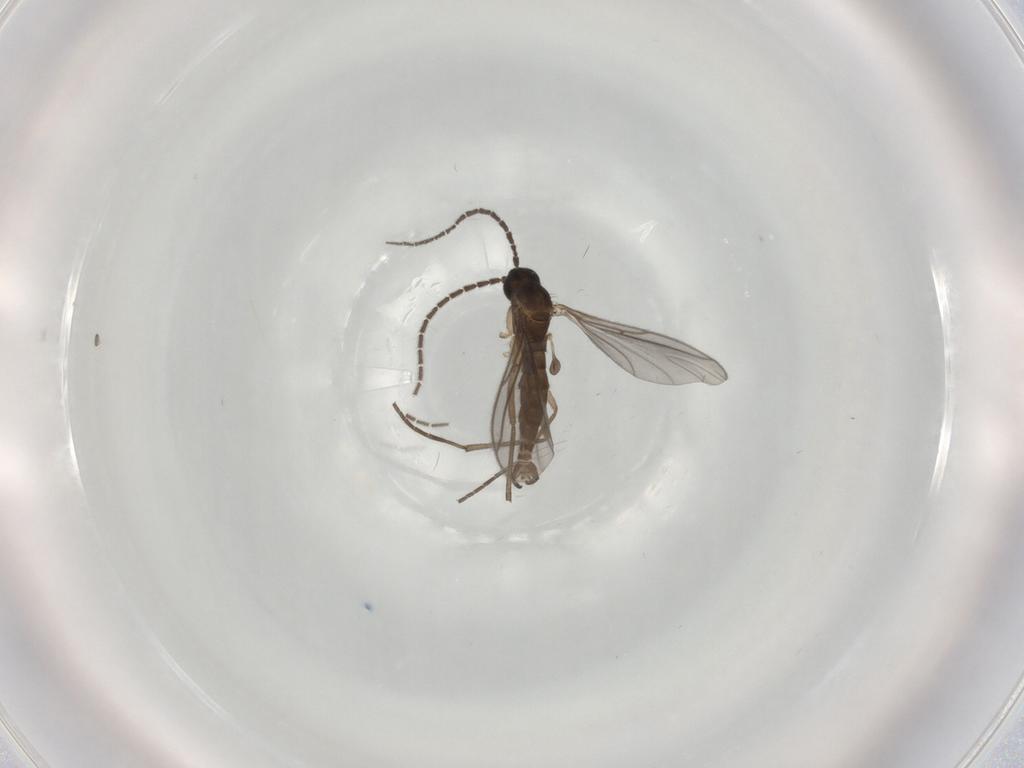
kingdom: Animalia
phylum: Arthropoda
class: Insecta
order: Diptera
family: Sciaridae
